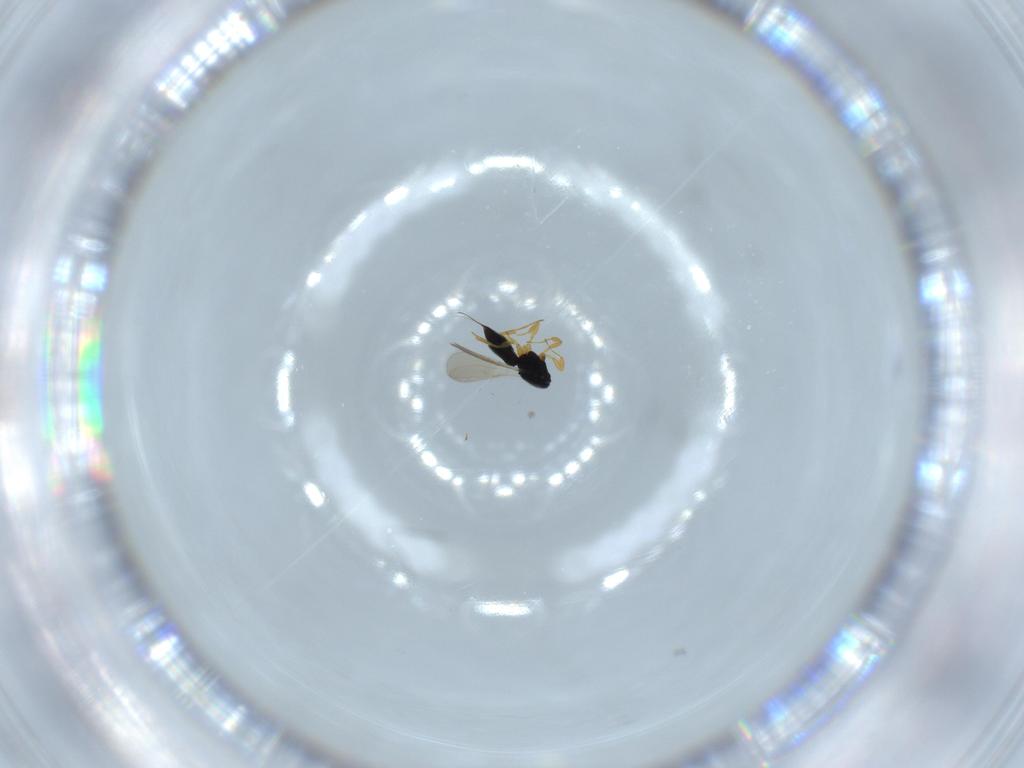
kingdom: Animalia
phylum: Arthropoda
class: Insecta
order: Hymenoptera
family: Scelionidae
